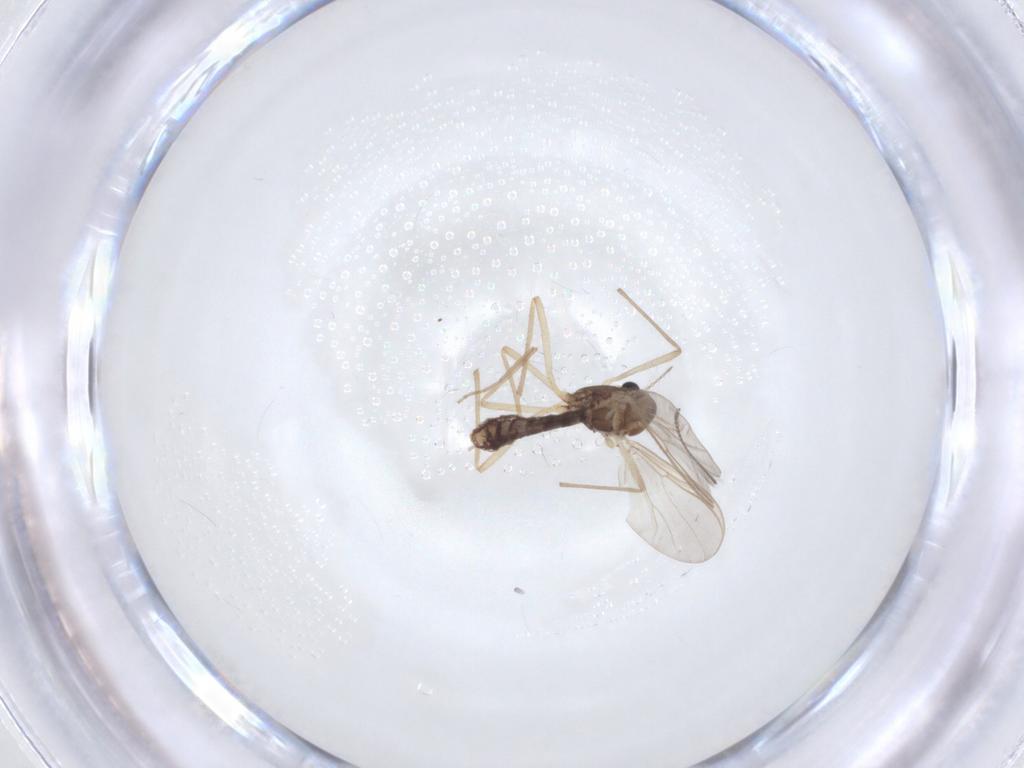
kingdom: Animalia
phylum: Arthropoda
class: Insecta
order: Diptera
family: Chironomidae
